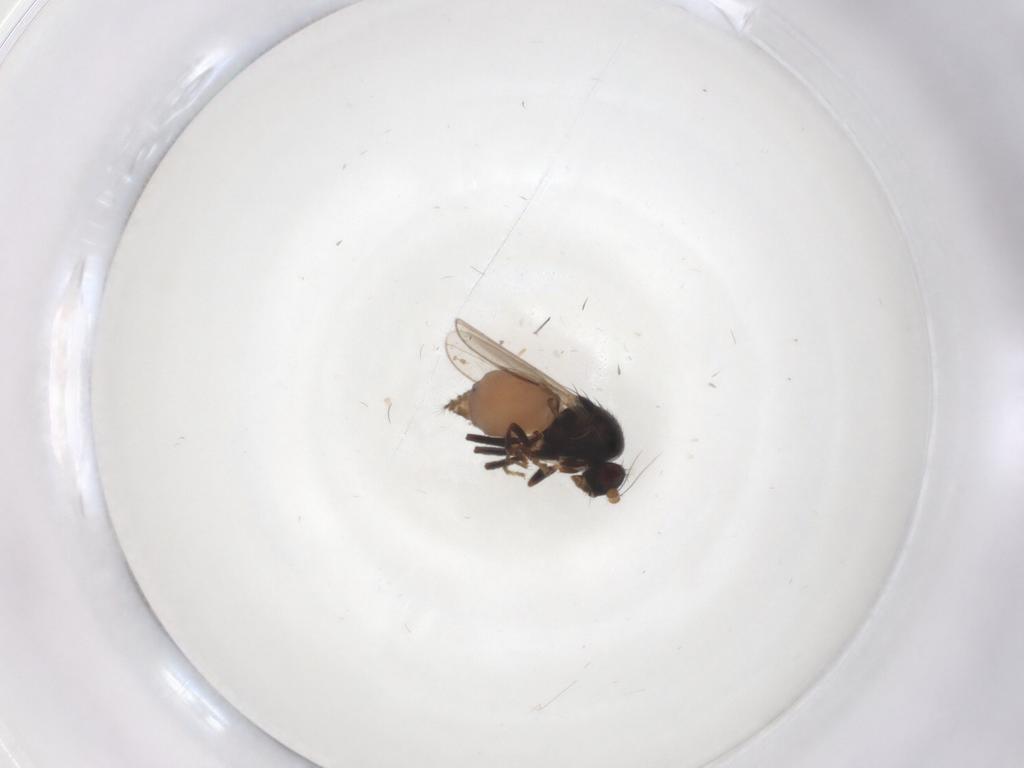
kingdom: Animalia
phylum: Arthropoda
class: Insecta
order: Diptera
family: Sphaeroceridae
